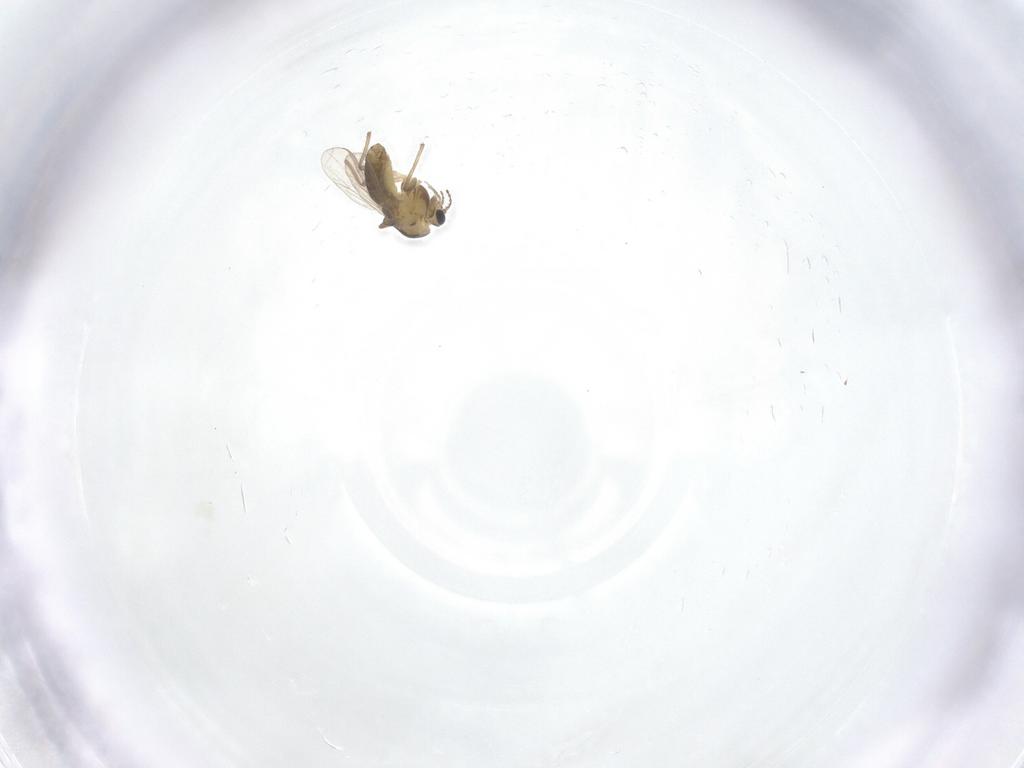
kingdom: Animalia
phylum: Arthropoda
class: Insecta
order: Diptera
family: Chironomidae
